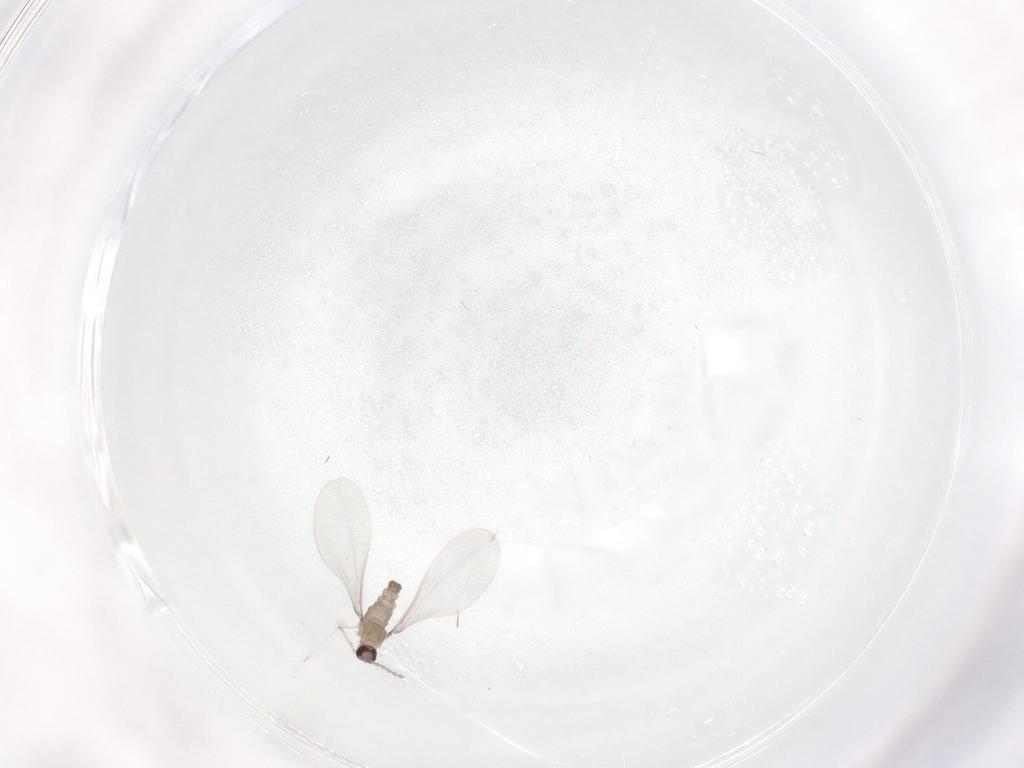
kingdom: Animalia
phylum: Arthropoda
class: Insecta
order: Diptera
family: Cecidomyiidae
